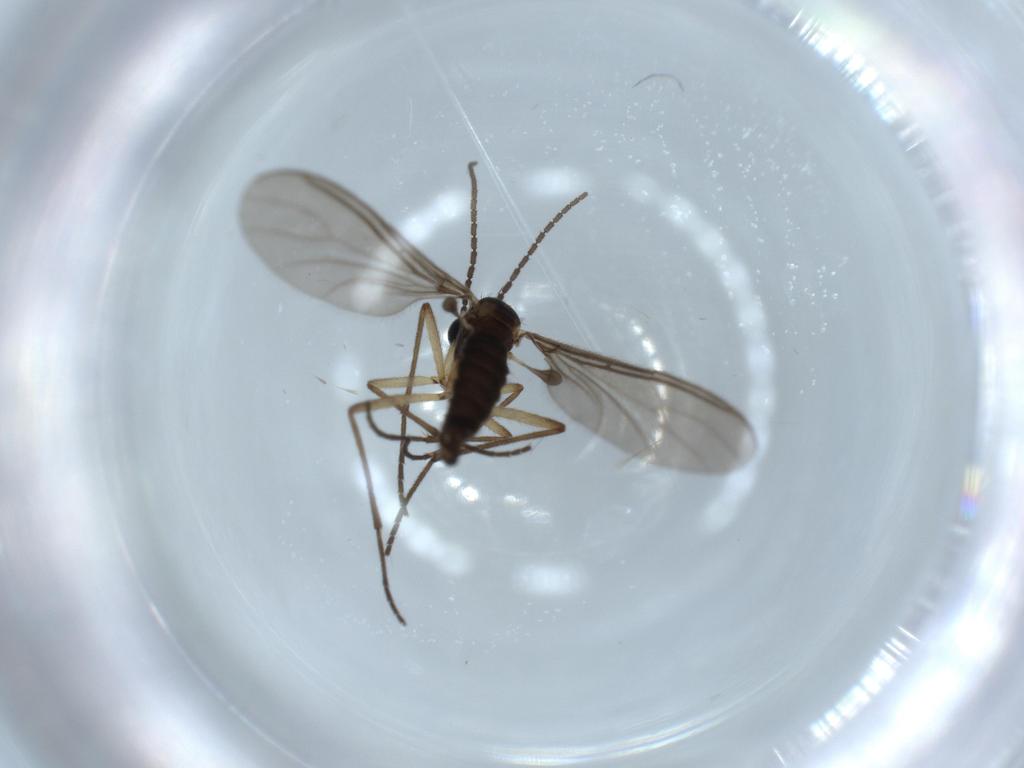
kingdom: Animalia
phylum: Arthropoda
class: Insecta
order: Diptera
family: Sciaridae
